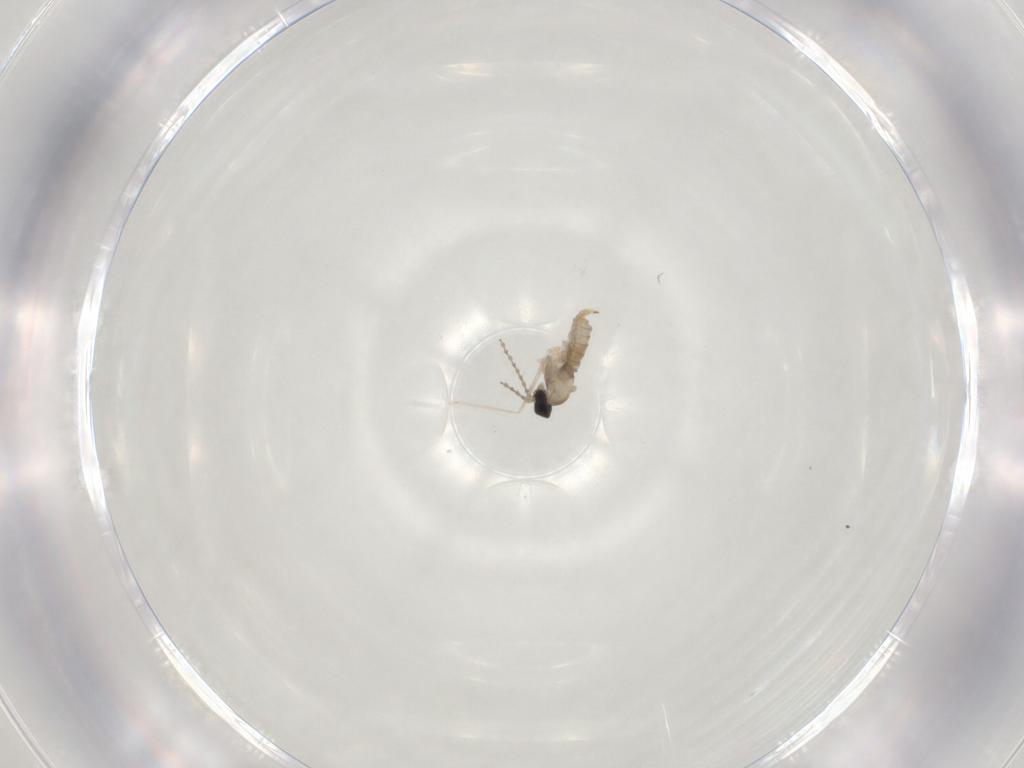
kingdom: Animalia
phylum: Arthropoda
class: Insecta
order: Diptera
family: Cecidomyiidae
